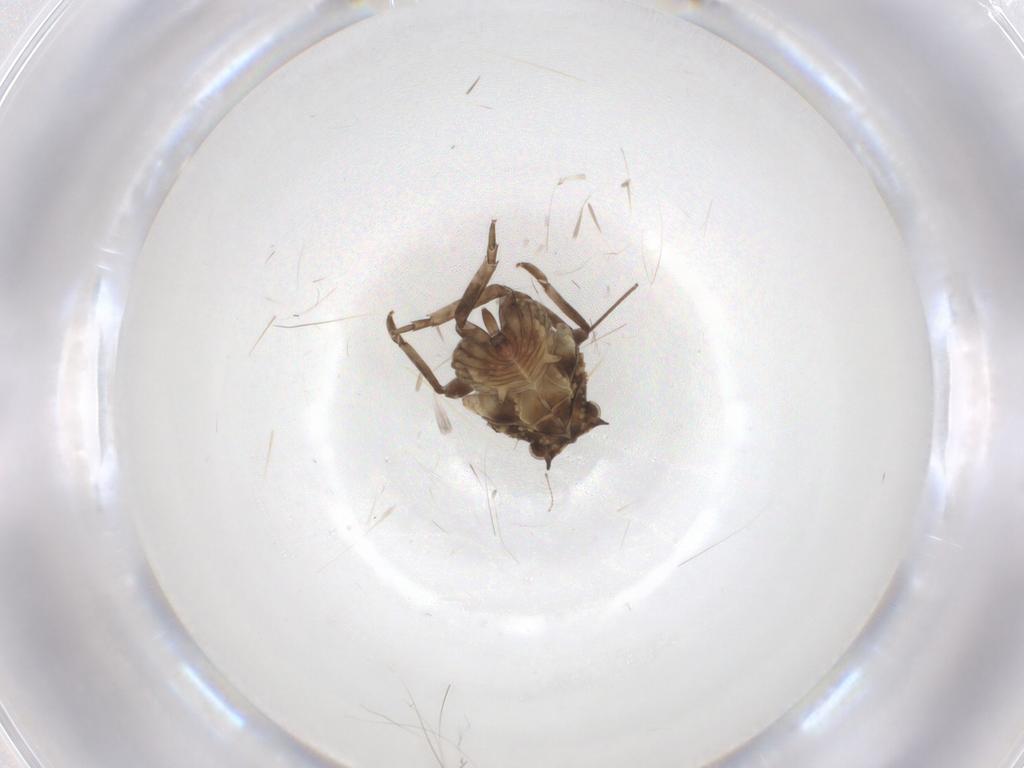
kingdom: Animalia
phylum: Arthropoda
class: Insecta
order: Hemiptera
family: Fulgoridae
